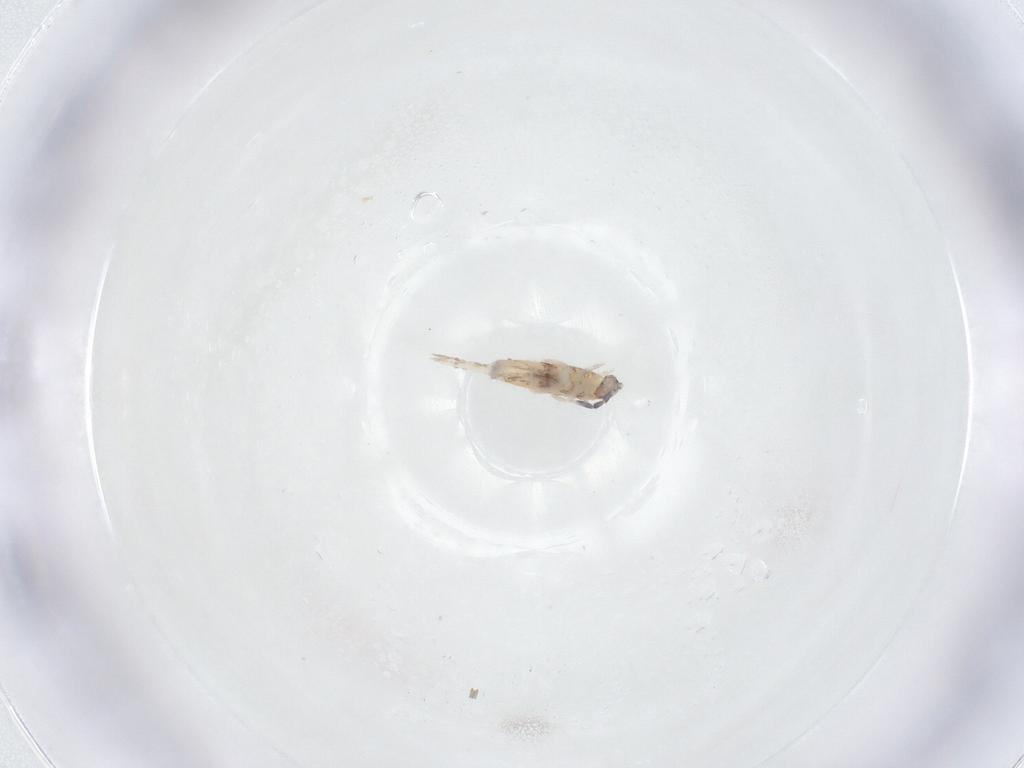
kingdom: Animalia
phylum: Arthropoda
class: Collembola
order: Entomobryomorpha
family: Entomobryidae
